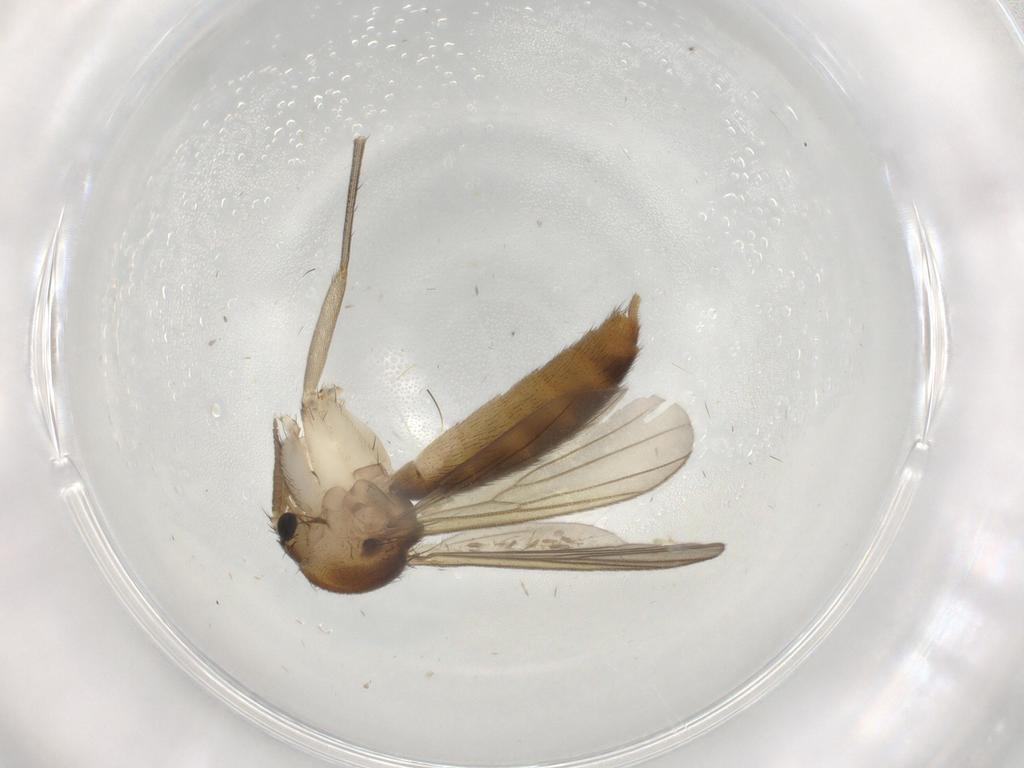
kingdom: Animalia
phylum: Arthropoda
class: Insecta
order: Diptera
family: Mycetophilidae
